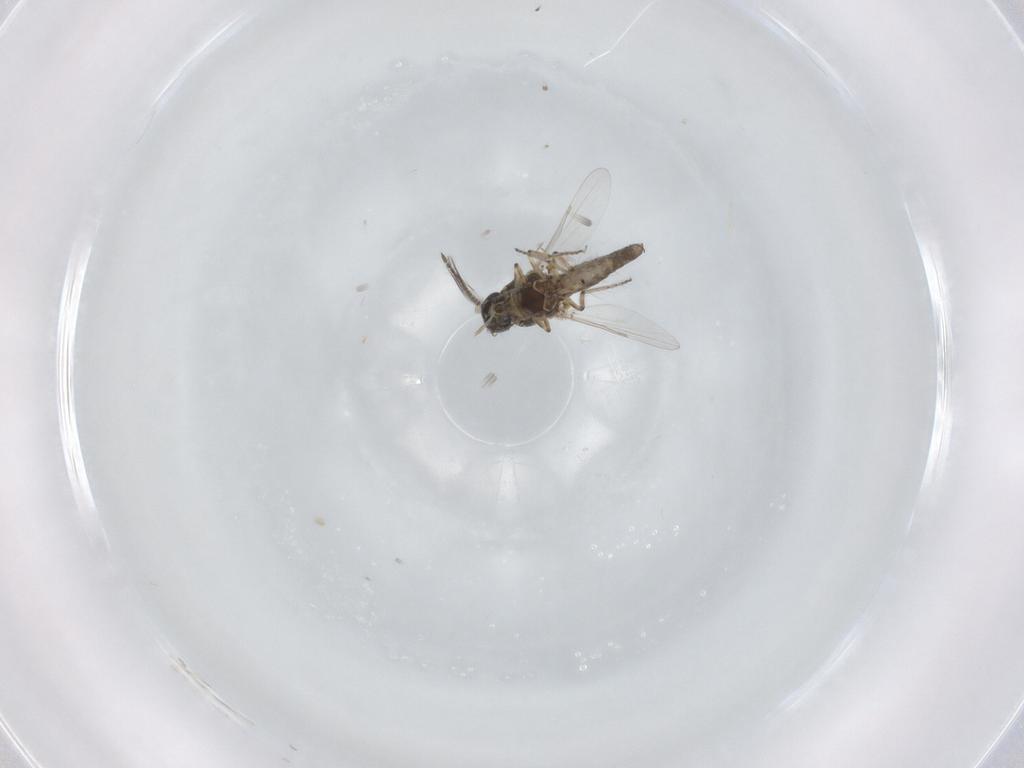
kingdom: Animalia
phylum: Arthropoda
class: Insecta
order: Diptera
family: Ceratopogonidae
